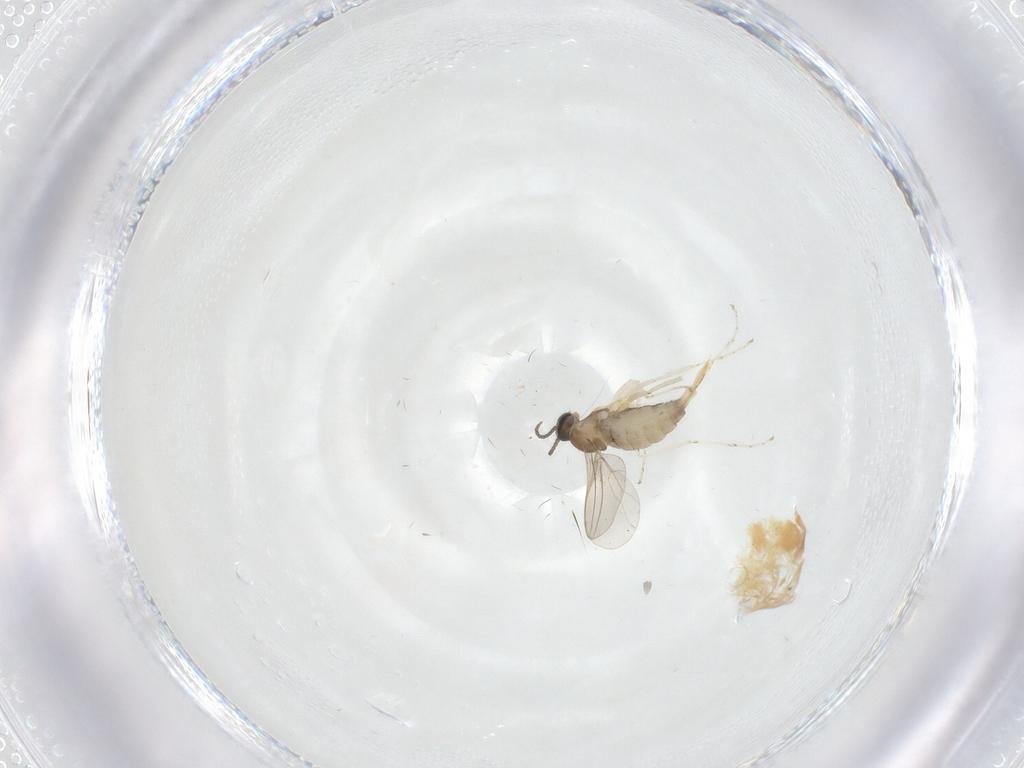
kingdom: Animalia
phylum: Arthropoda
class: Insecta
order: Diptera
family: Cecidomyiidae
